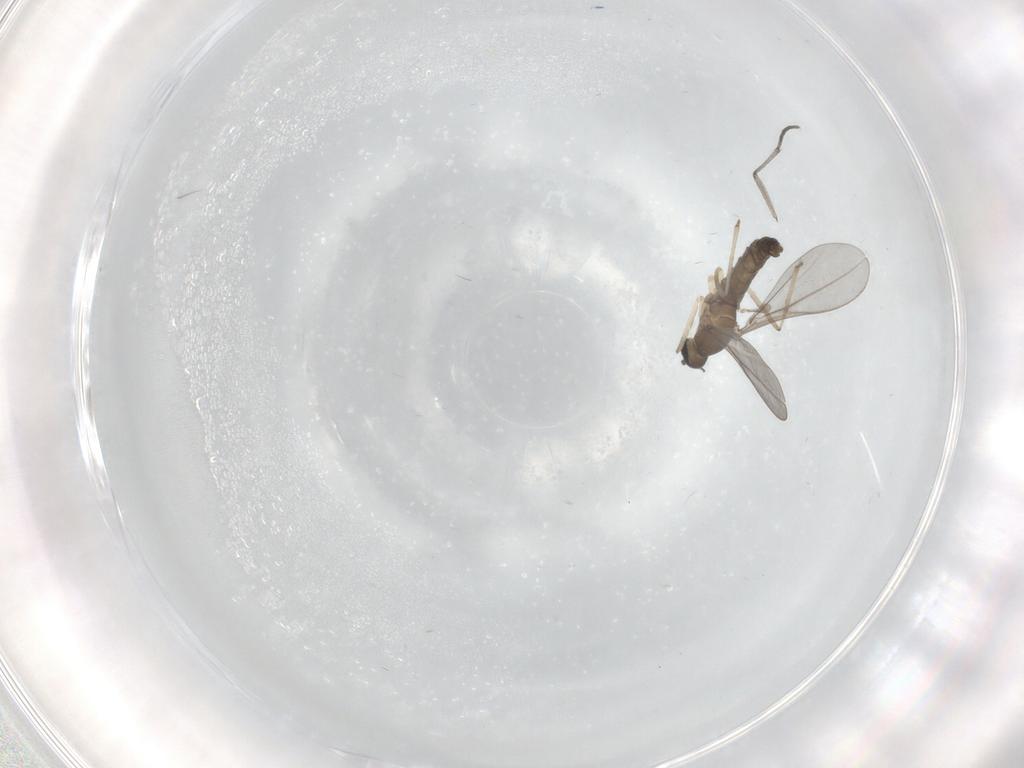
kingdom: Animalia
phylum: Arthropoda
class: Insecta
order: Diptera
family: Sciaridae
